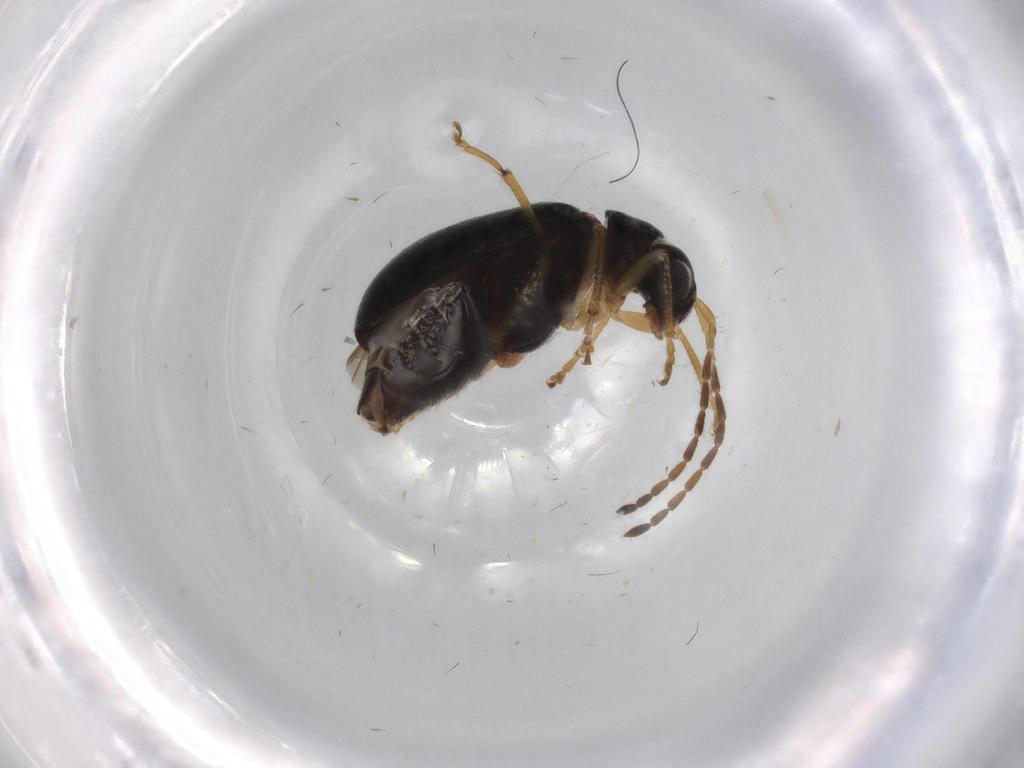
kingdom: Animalia
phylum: Arthropoda
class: Insecta
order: Coleoptera
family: Chrysomelidae
